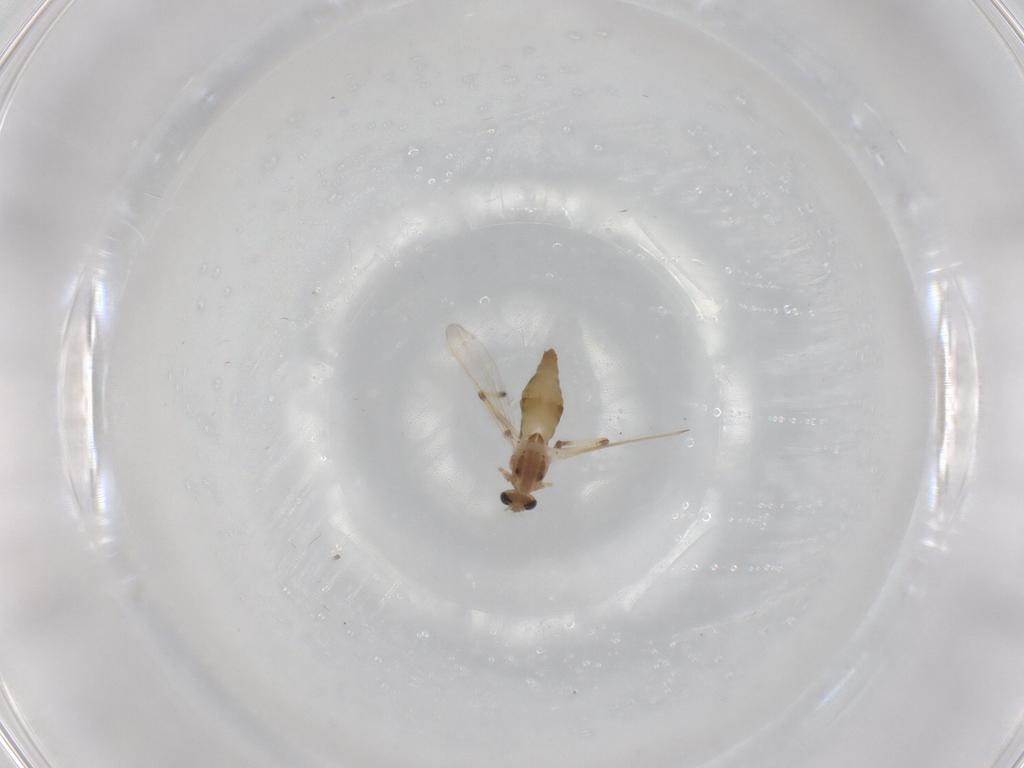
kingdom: Animalia
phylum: Arthropoda
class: Insecta
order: Diptera
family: Chironomidae
